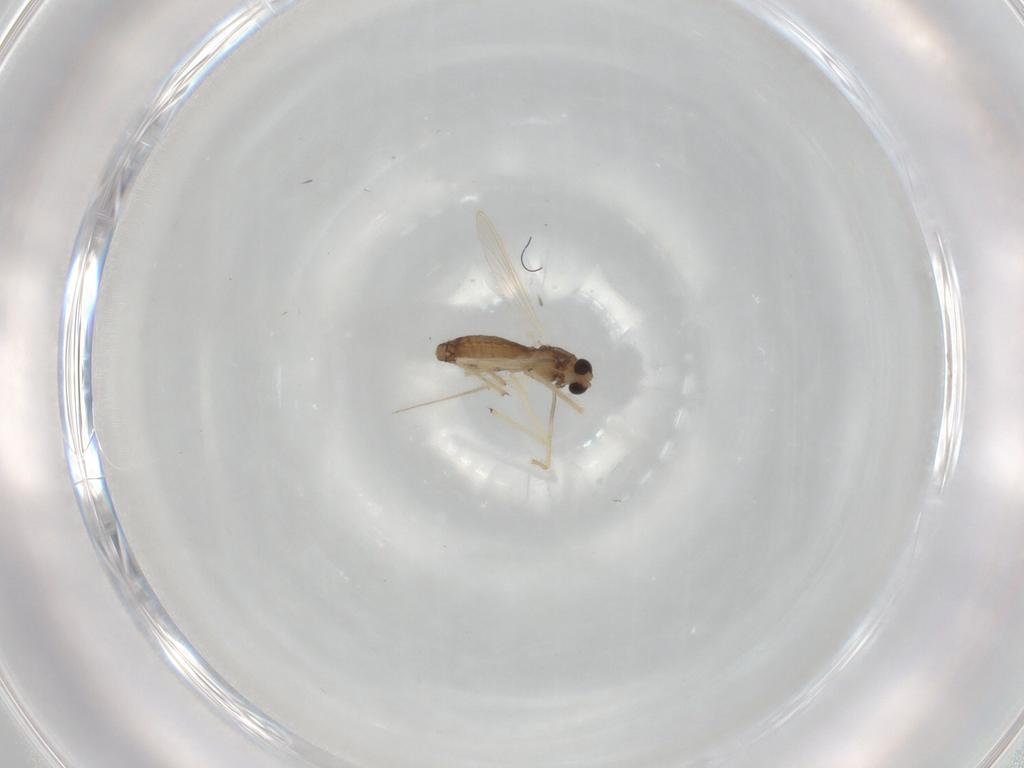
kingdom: Animalia
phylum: Arthropoda
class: Insecta
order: Diptera
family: Chironomidae
